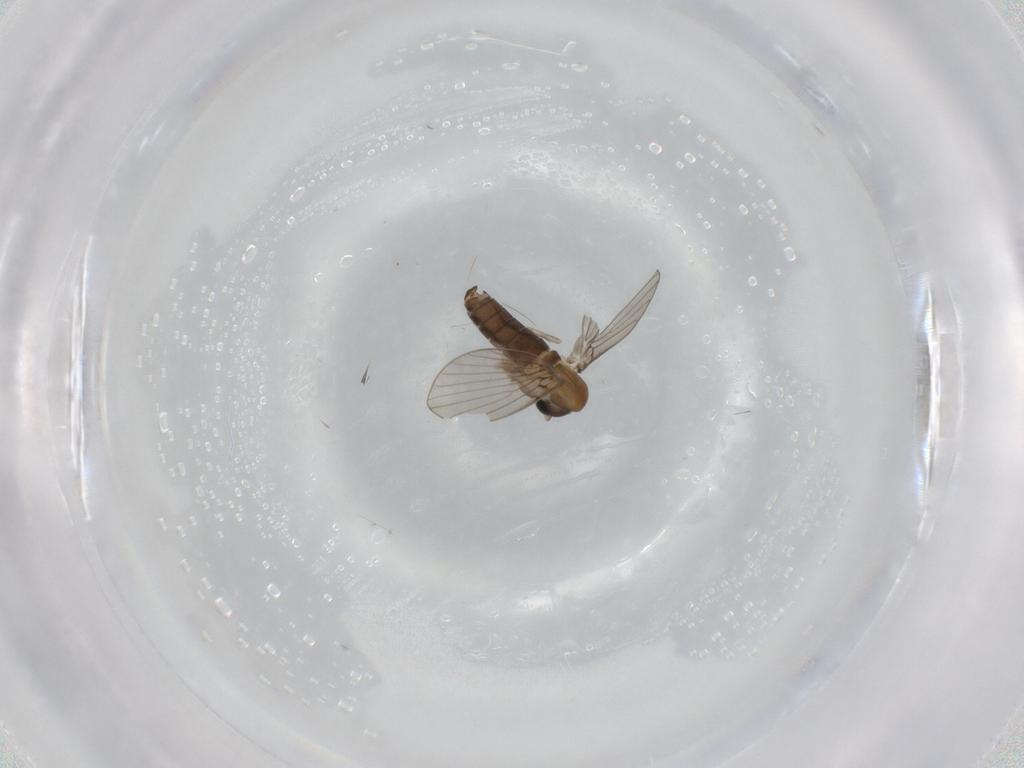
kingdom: Animalia
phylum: Arthropoda
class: Insecta
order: Diptera
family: Psychodidae
